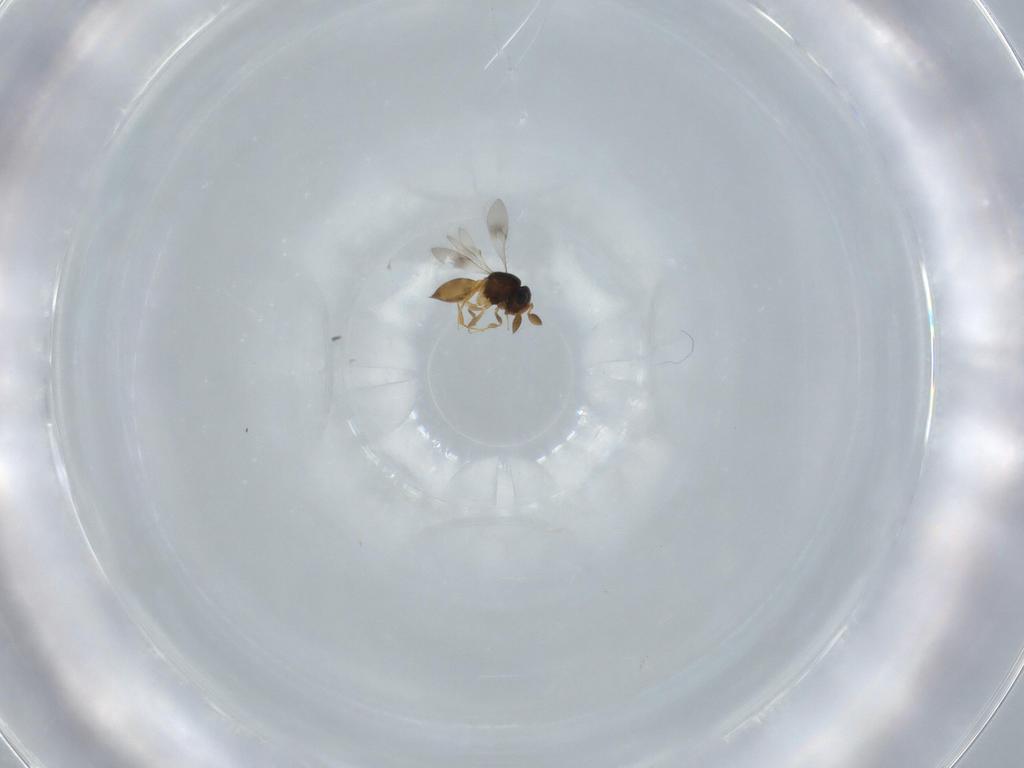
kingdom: Animalia
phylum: Arthropoda
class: Insecta
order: Hymenoptera
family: Scelionidae
